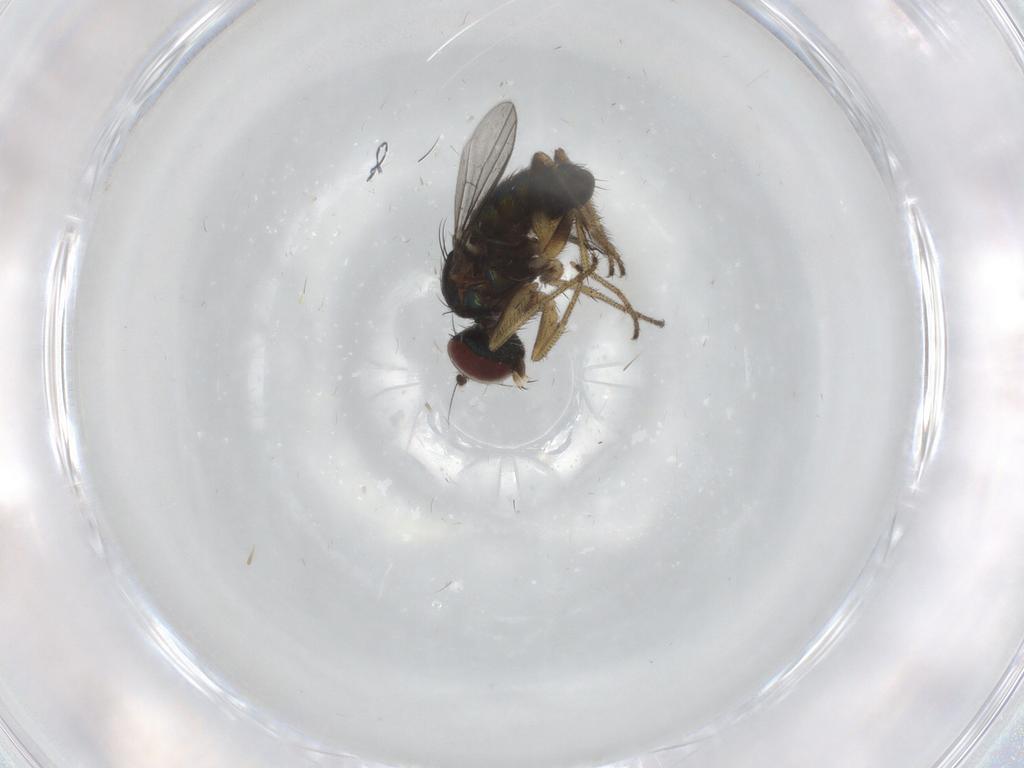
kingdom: Animalia
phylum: Arthropoda
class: Insecta
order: Diptera
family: Dolichopodidae
